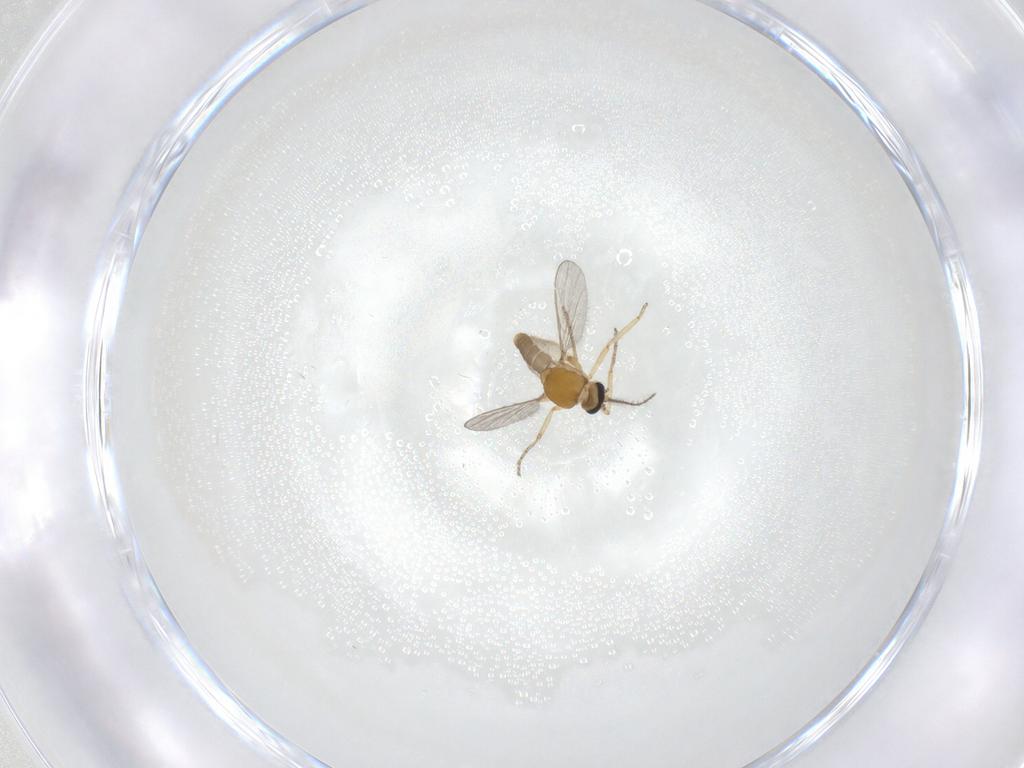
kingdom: Animalia
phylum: Arthropoda
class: Insecta
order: Diptera
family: Ceratopogonidae
